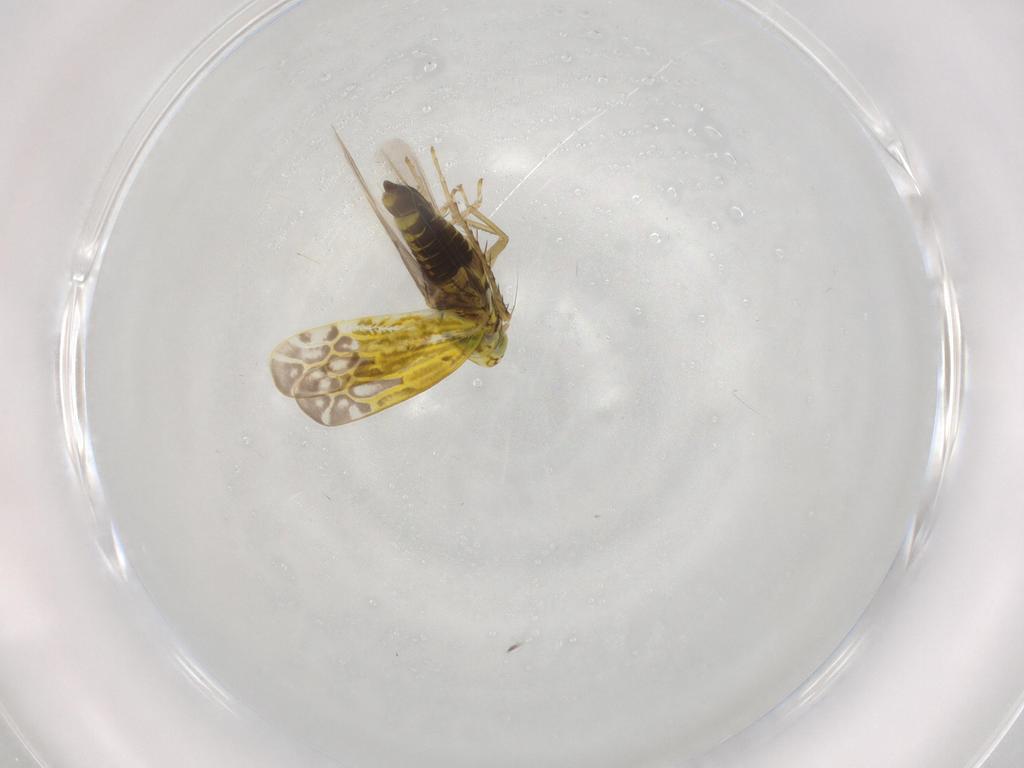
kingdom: Animalia
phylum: Arthropoda
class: Insecta
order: Hemiptera
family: Cicadellidae
